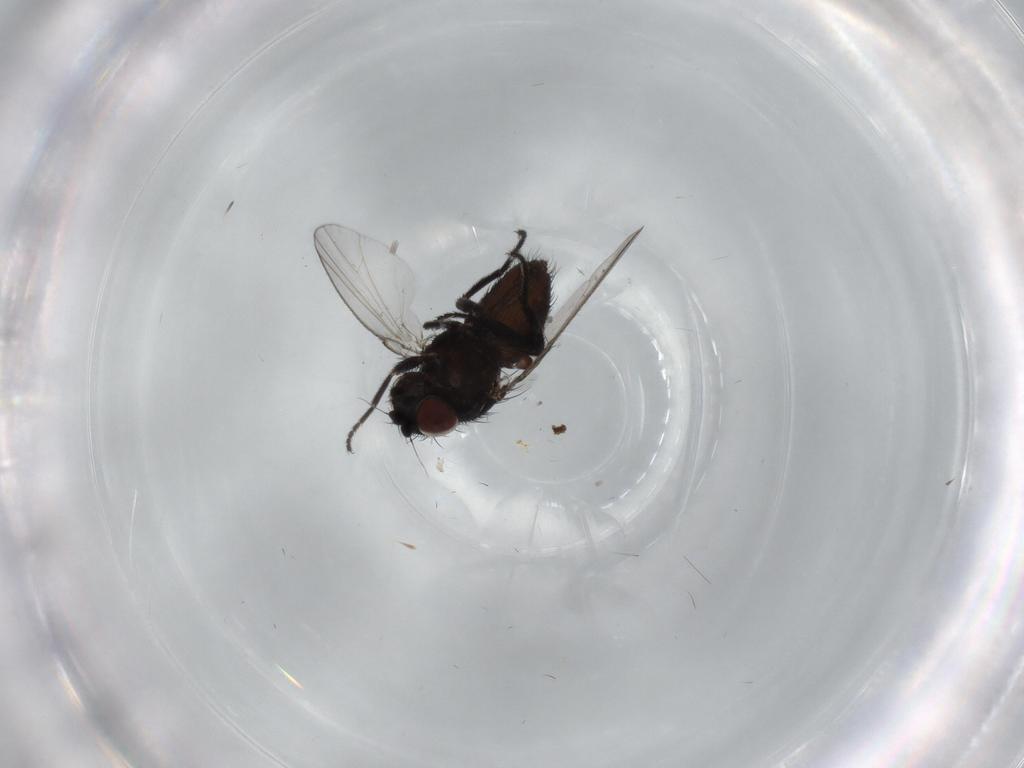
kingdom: Animalia
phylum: Arthropoda
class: Insecta
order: Diptera
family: Milichiidae
